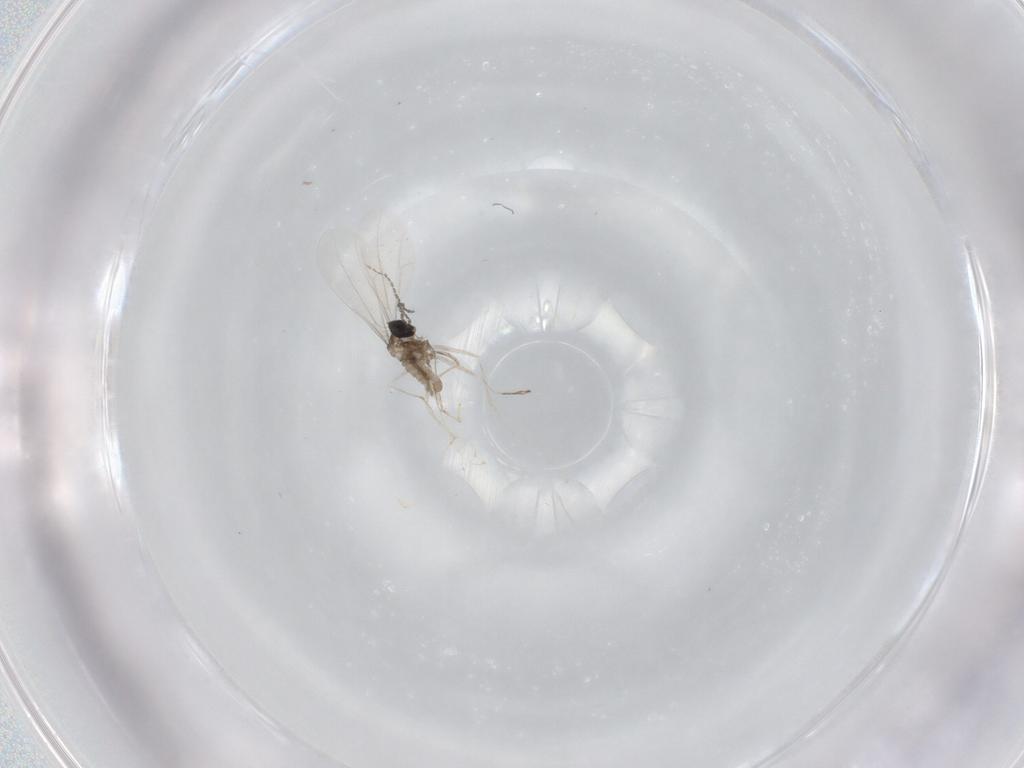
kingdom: Animalia
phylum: Arthropoda
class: Insecta
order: Diptera
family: Cecidomyiidae
